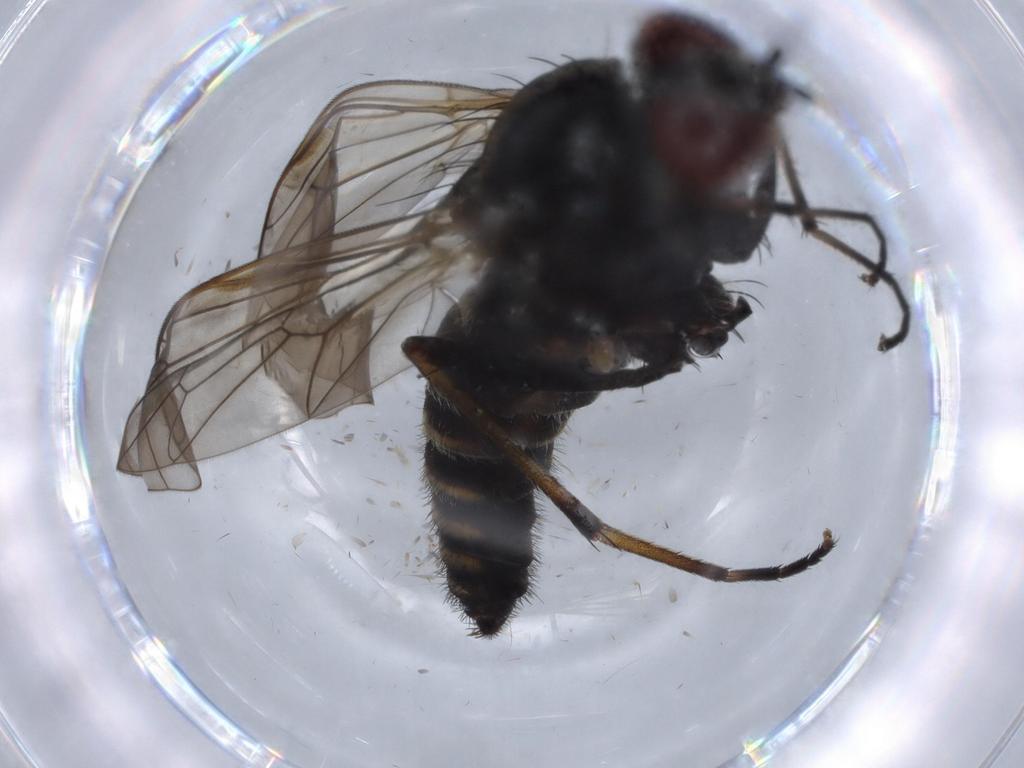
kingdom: Animalia
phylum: Arthropoda
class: Insecta
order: Diptera
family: Therevidae
